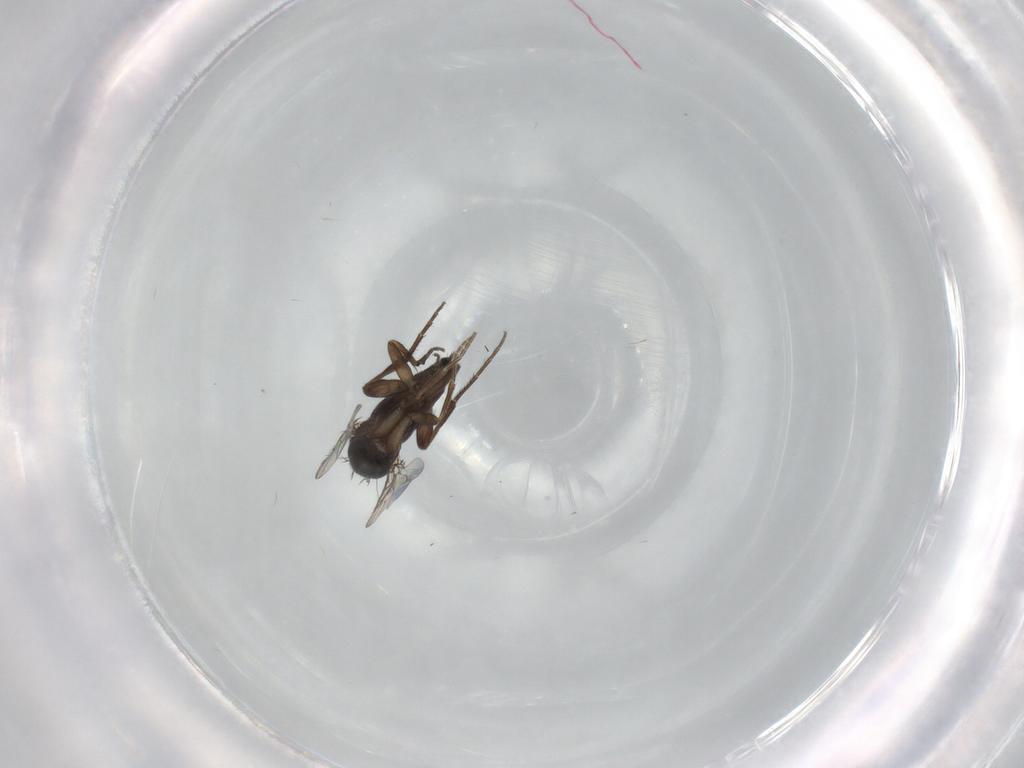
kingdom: Animalia
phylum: Arthropoda
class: Insecta
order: Diptera
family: Phoridae
